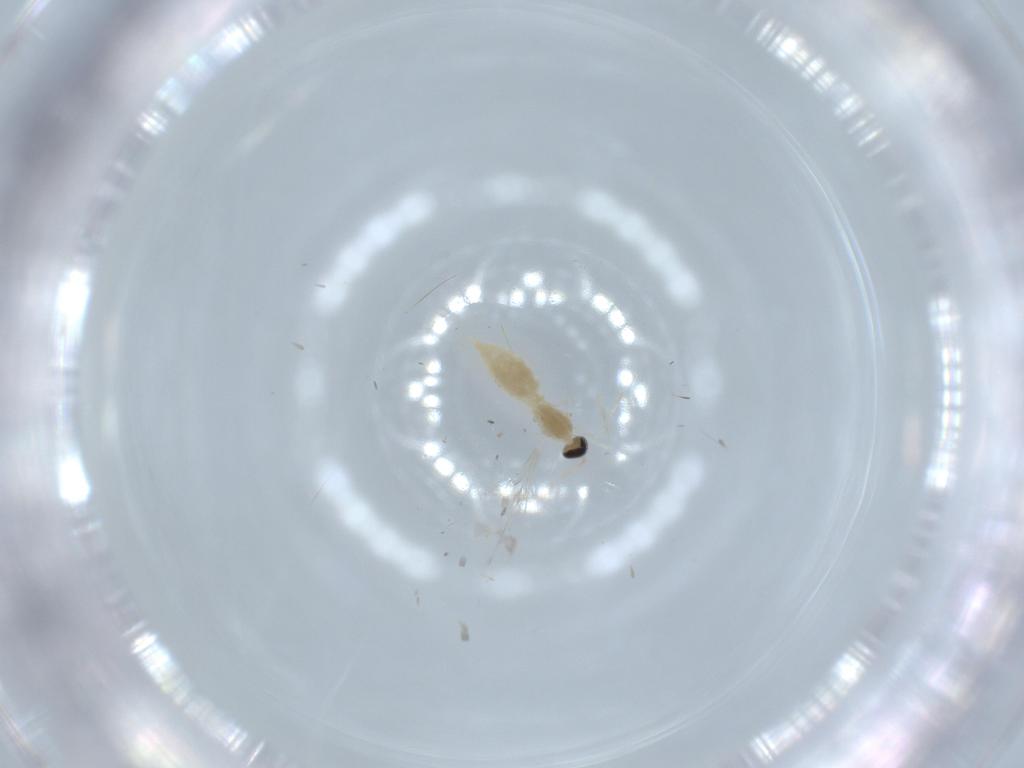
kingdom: Animalia
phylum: Arthropoda
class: Insecta
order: Diptera
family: Cecidomyiidae
